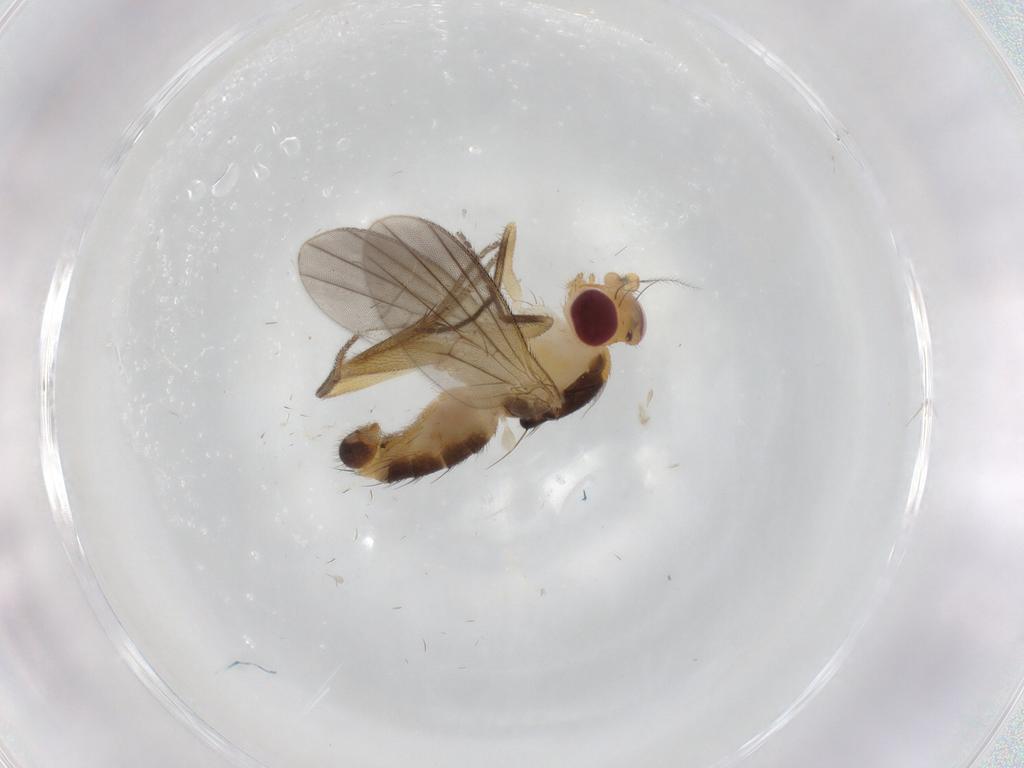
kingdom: Animalia
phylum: Arthropoda
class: Insecta
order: Diptera
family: Clusiidae
